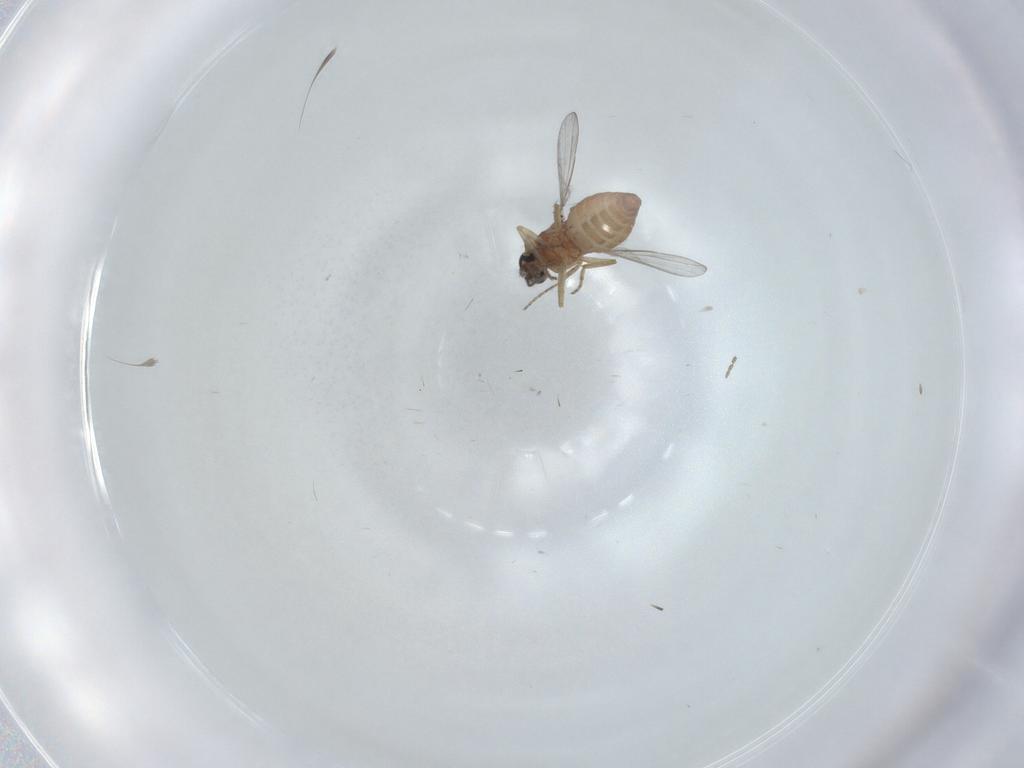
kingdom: Animalia
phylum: Arthropoda
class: Insecta
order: Diptera
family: Ceratopogonidae
